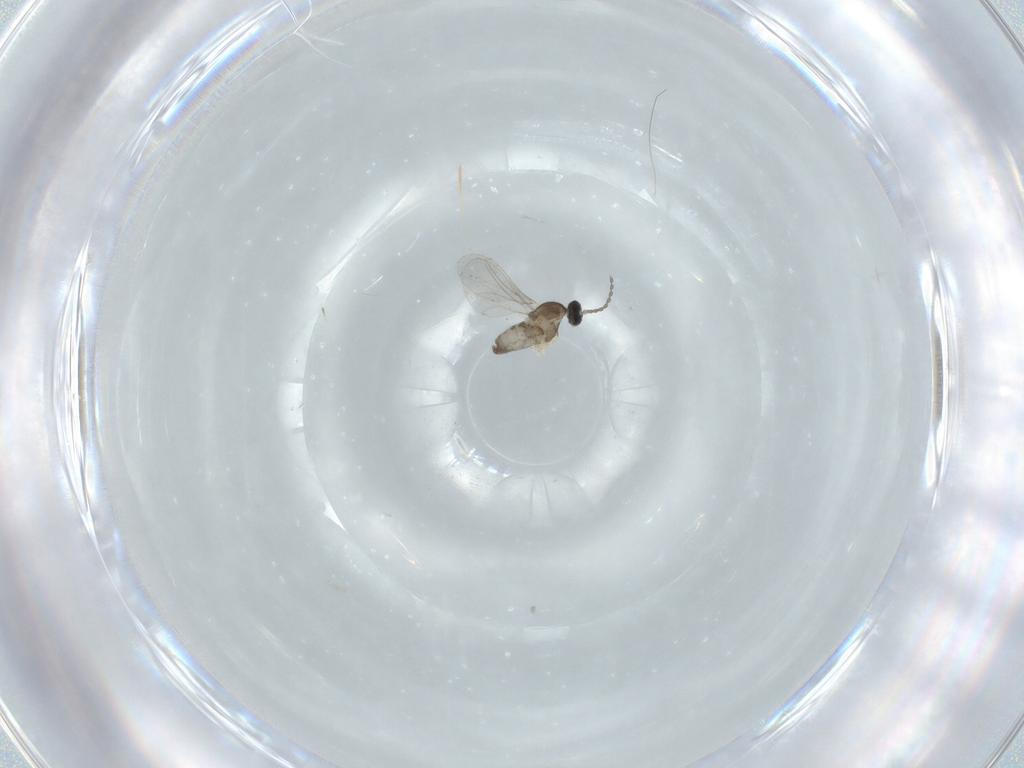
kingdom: Animalia
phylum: Arthropoda
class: Insecta
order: Diptera
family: Cecidomyiidae
